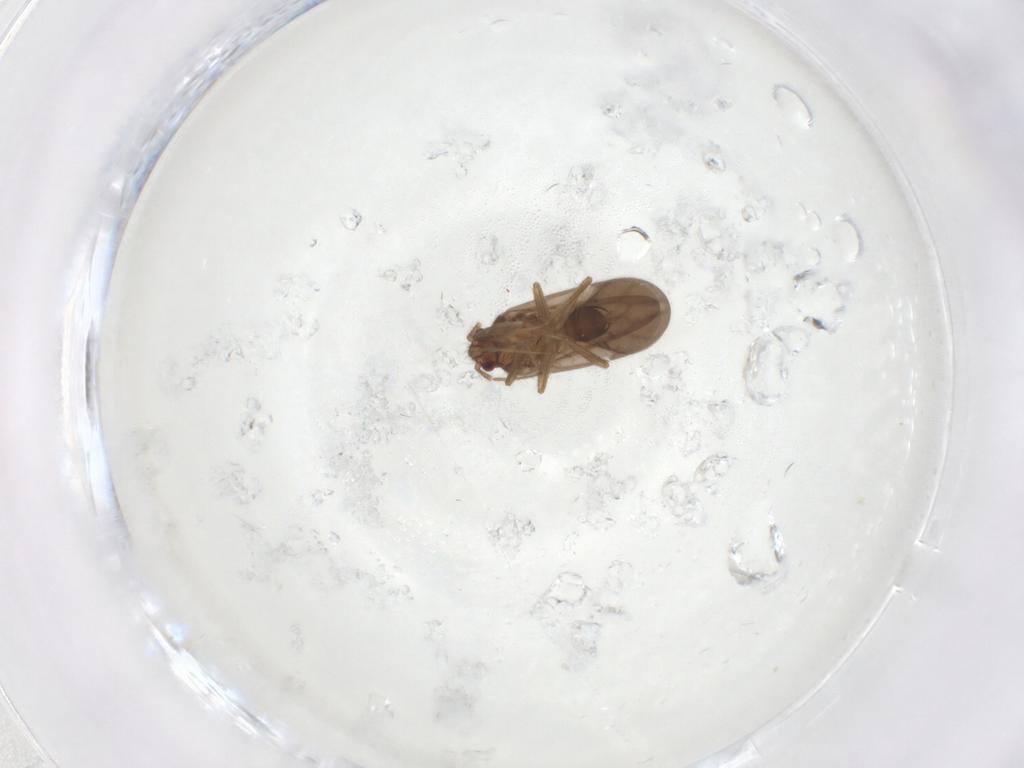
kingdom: Animalia
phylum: Arthropoda
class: Insecta
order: Hemiptera
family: Ceratocombidae
